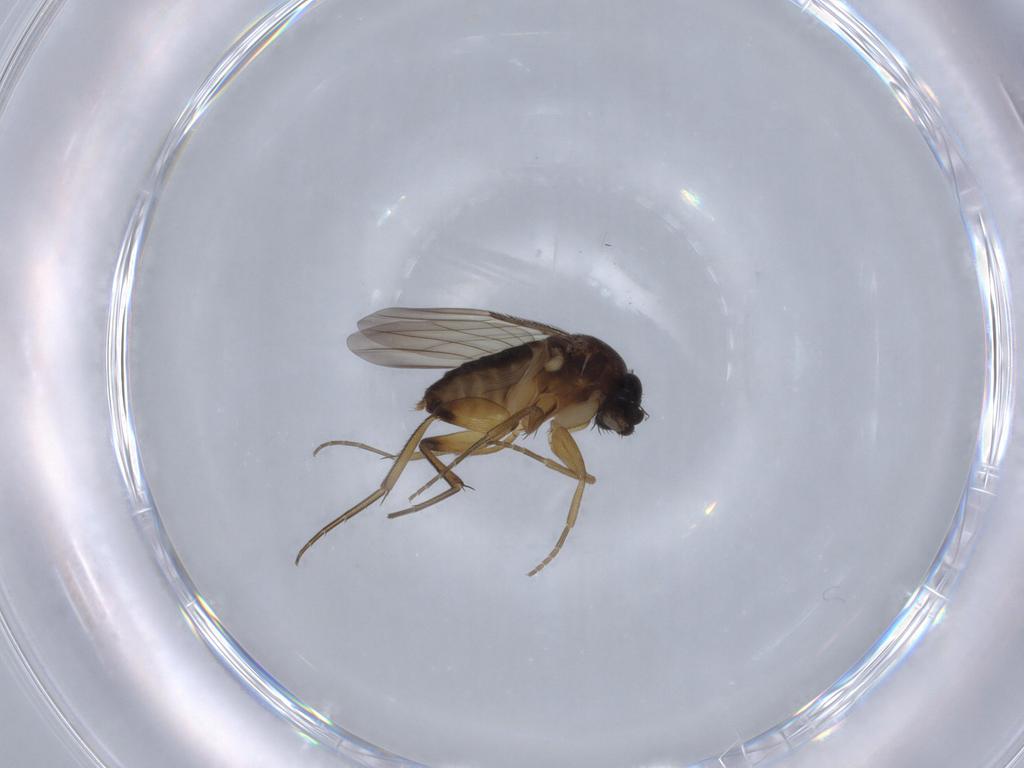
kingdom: Animalia
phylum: Arthropoda
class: Insecta
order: Diptera
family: Phoridae
